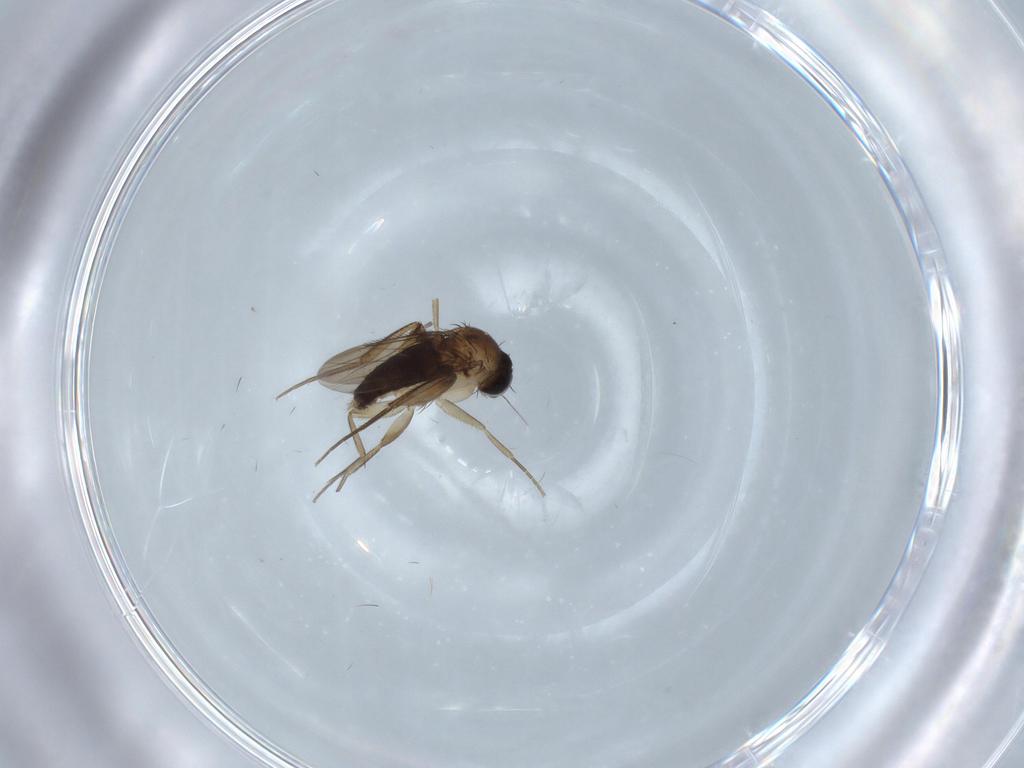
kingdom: Animalia
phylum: Arthropoda
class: Insecta
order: Diptera
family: Phoridae
